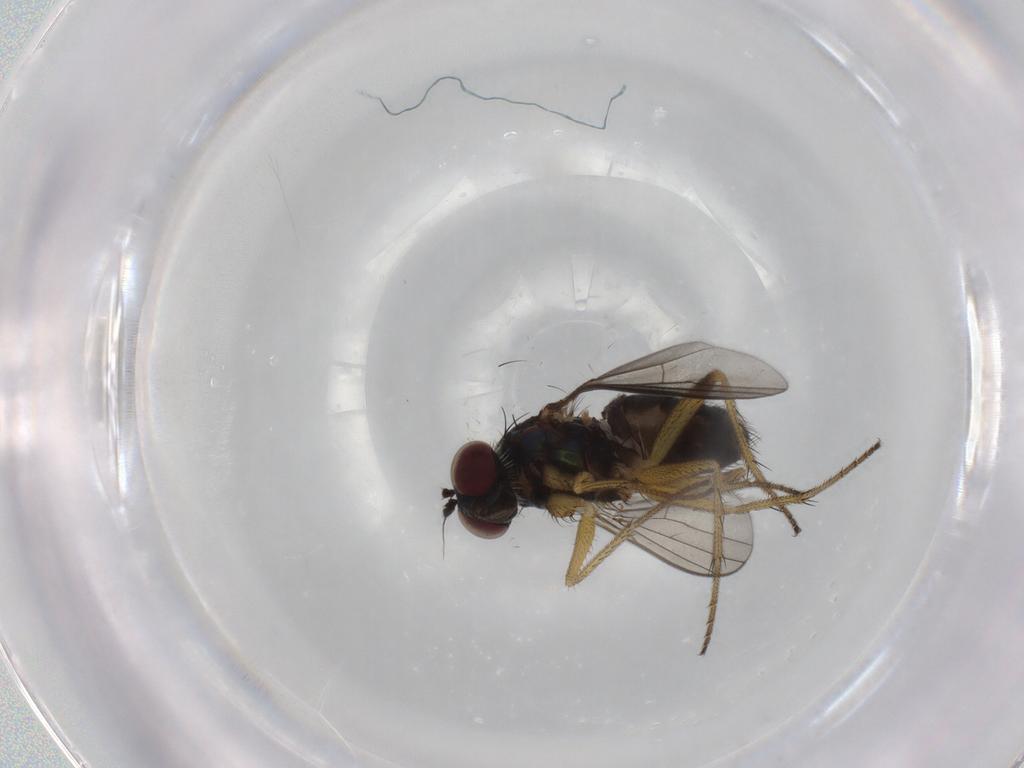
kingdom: Animalia
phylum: Arthropoda
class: Insecta
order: Diptera
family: Dolichopodidae
